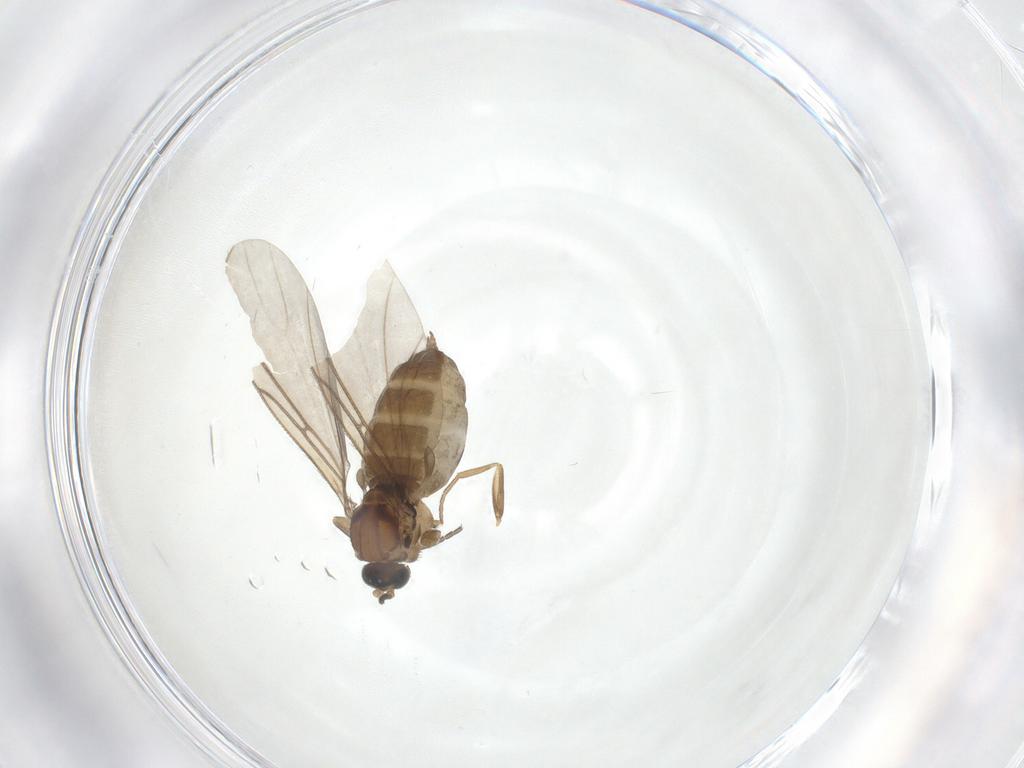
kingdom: Animalia
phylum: Arthropoda
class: Insecta
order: Diptera
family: Sciaridae
